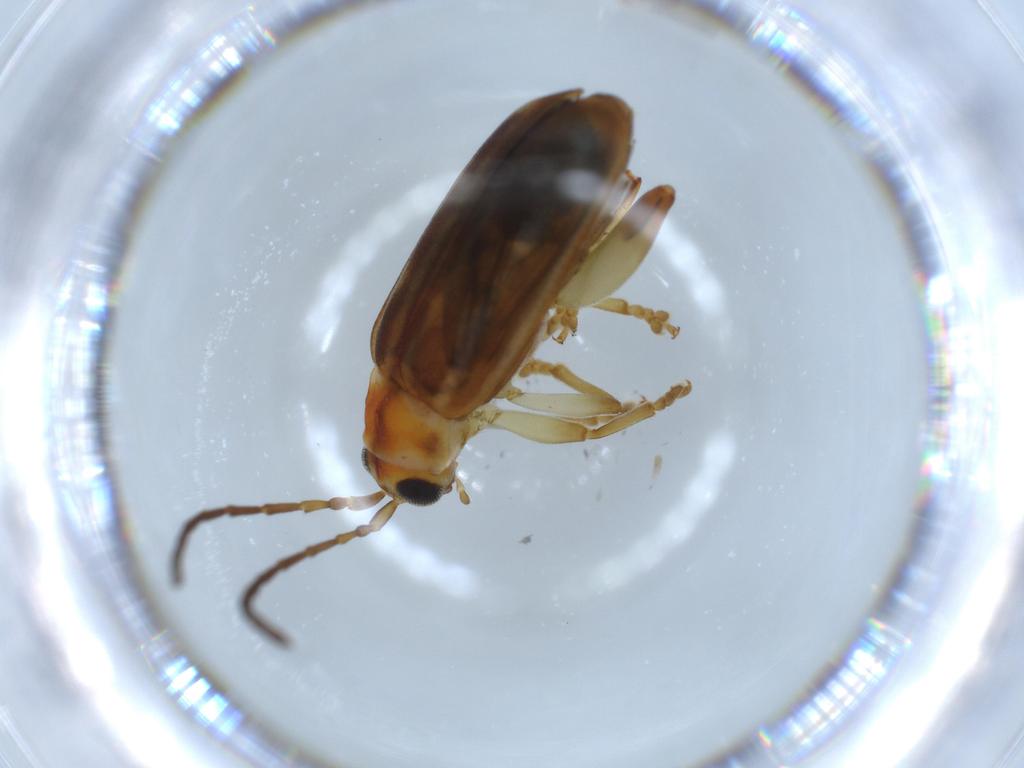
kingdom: Animalia
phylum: Arthropoda
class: Insecta
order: Coleoptera
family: Chrysomelidae
